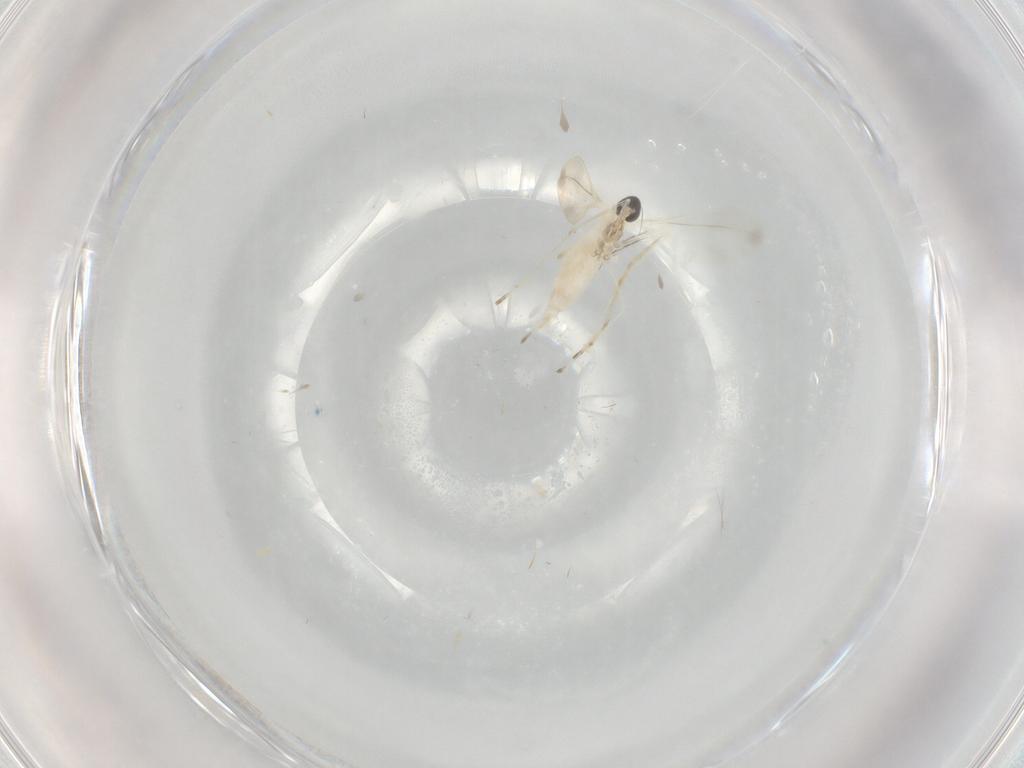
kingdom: Animalia
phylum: Arthropoda
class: Insecta
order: Diptera
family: Cecidomyiidae
